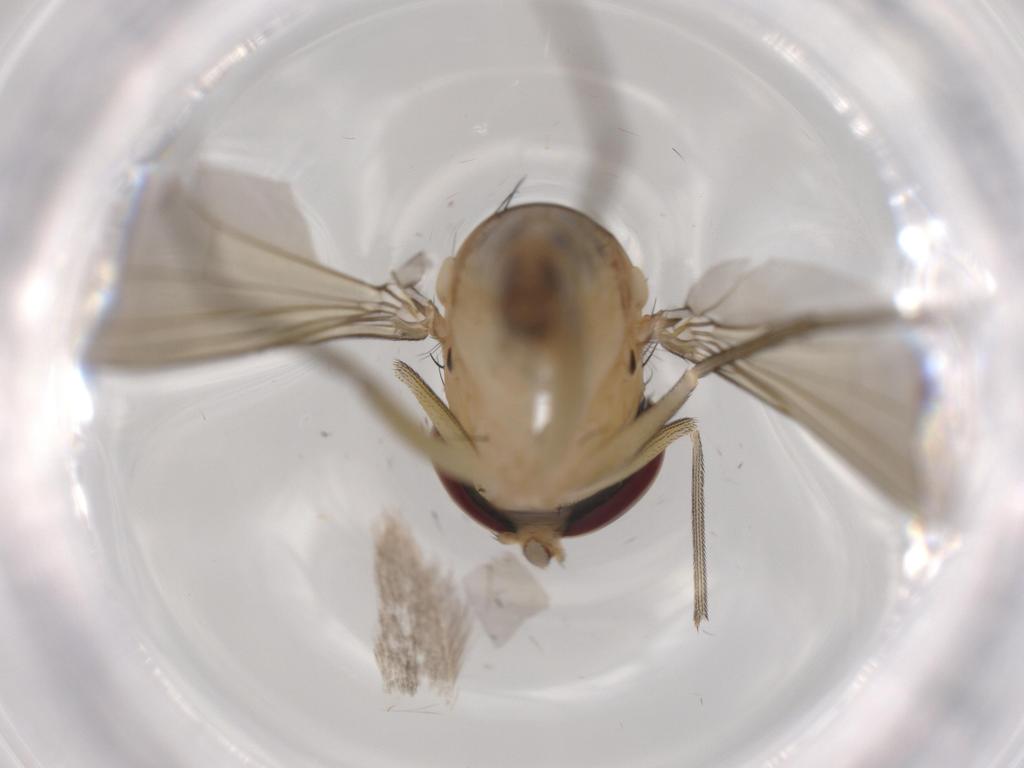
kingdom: Animalia
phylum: Arthropoda
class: Insecta
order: Diptera
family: Dolichopodidae
